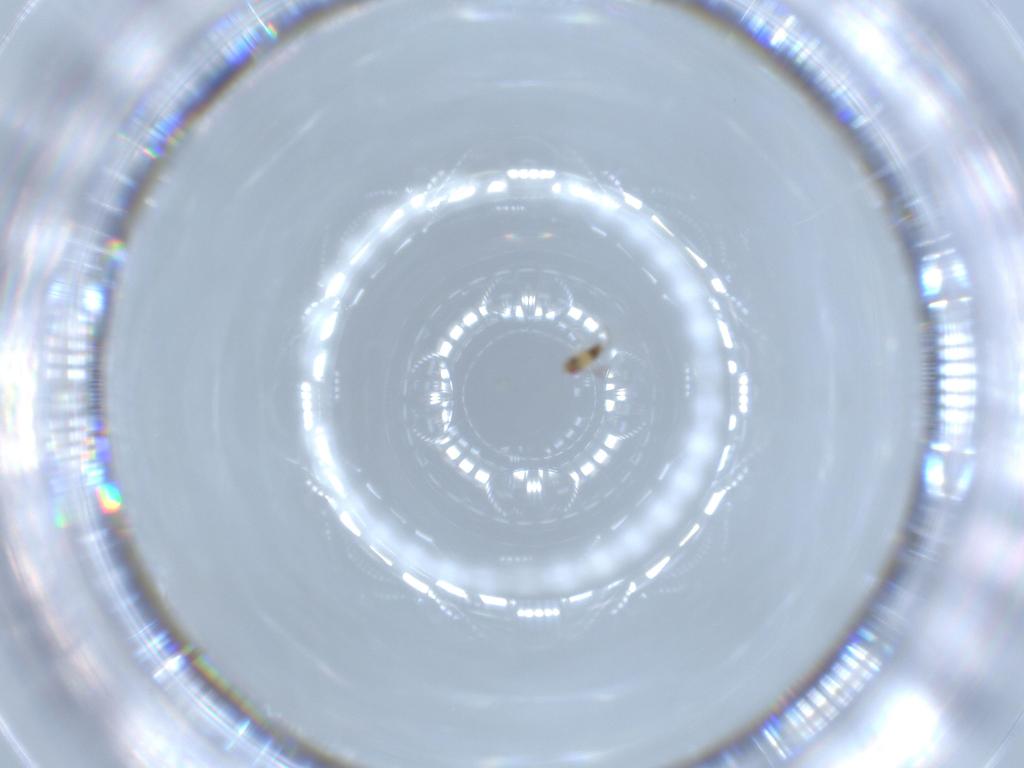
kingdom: Animalia
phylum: Arthropoda
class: Insecta
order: Hymenoptera
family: Trichogrammatidae
